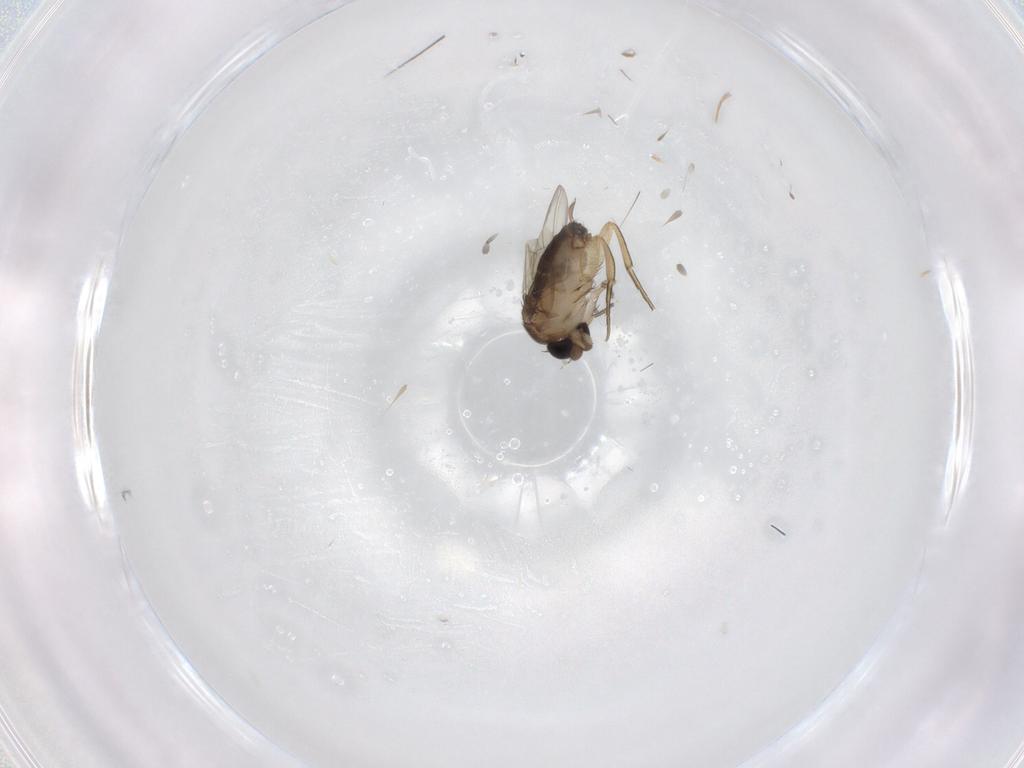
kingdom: Animalia
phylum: Arthropoda
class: Insecta
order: Diptera
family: Phoridae
